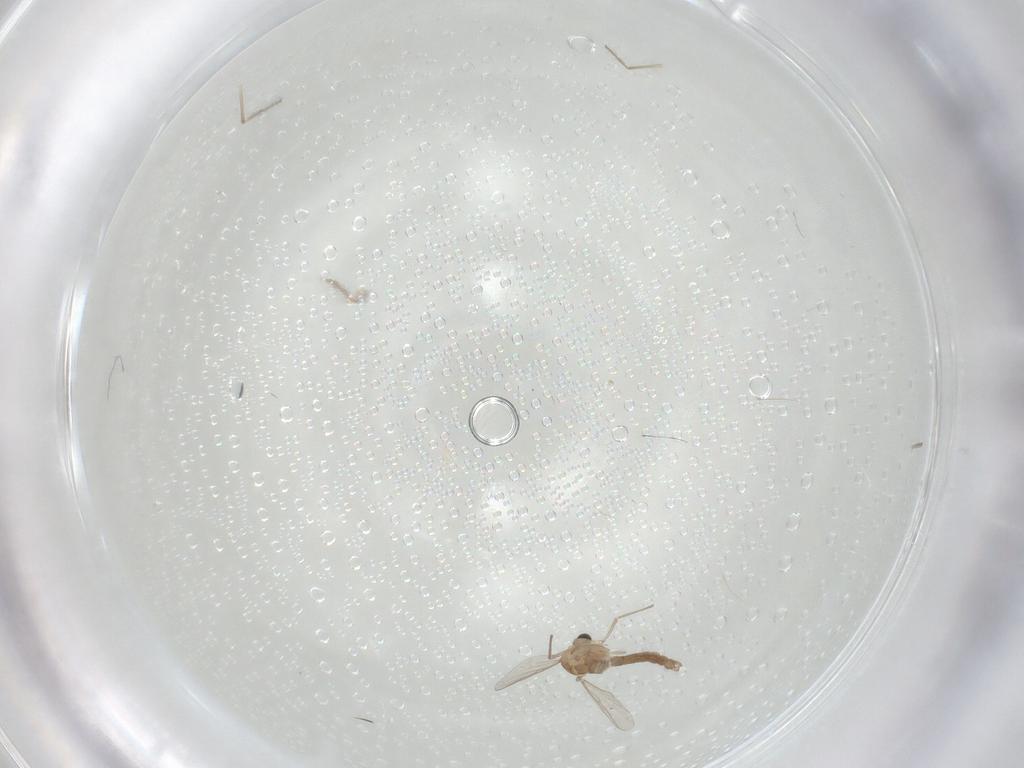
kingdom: Animalia
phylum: Arthropoda
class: Insecta
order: Diptera
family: Chironomidae
